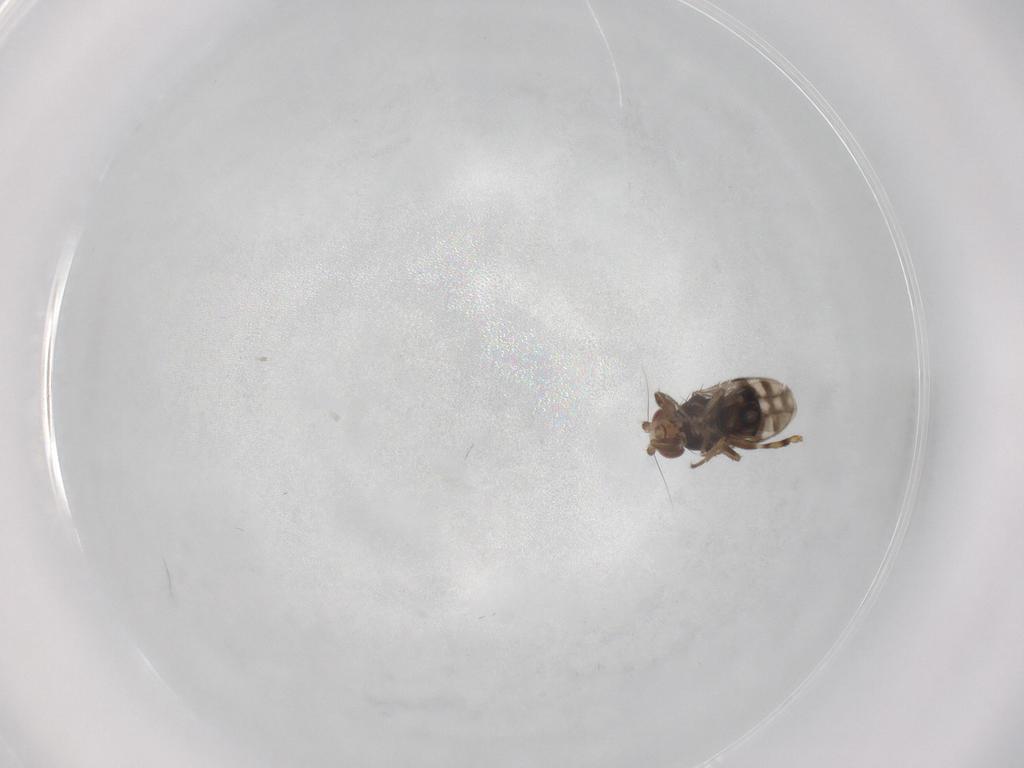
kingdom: Animalia
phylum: Arthropoda
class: Insecta
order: Diptera
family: Sphaeroceridae
